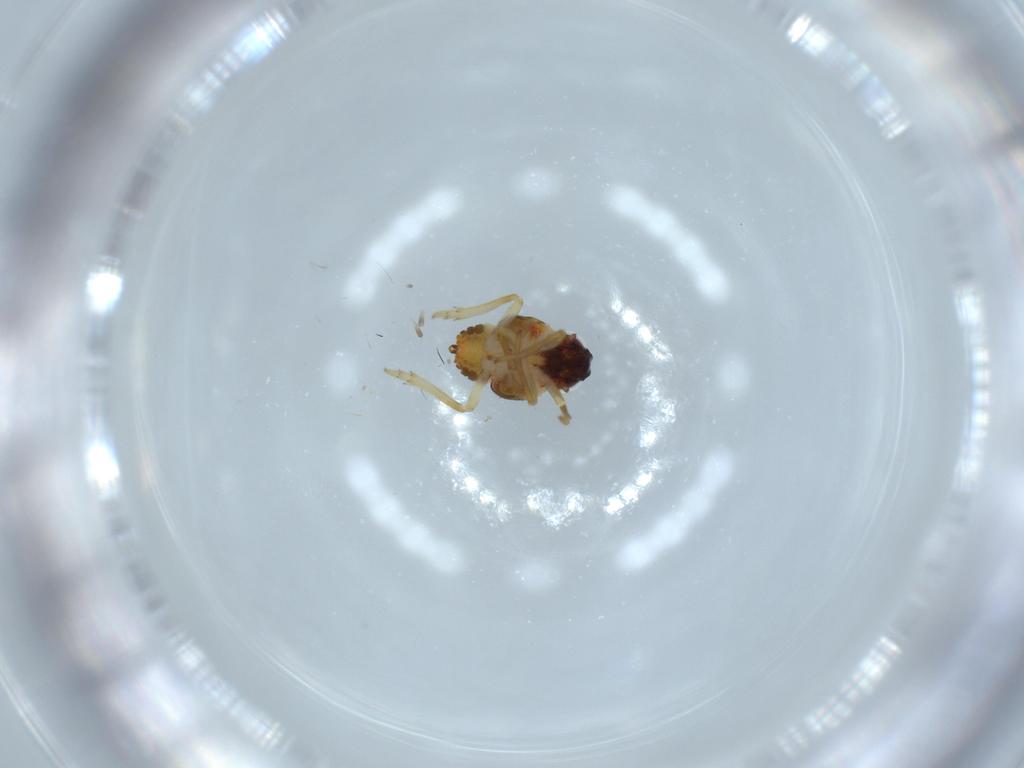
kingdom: Animalia
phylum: Arthropoda
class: Insecta
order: Hemiptera
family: Issidae
